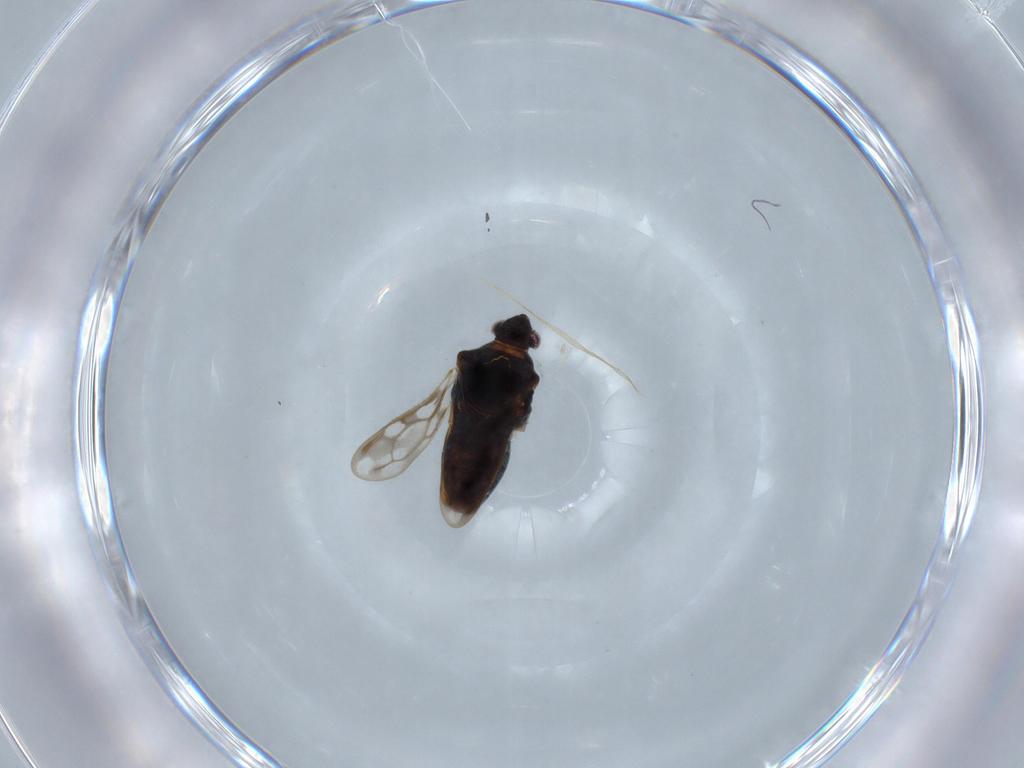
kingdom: Animalia
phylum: Arthropoda
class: Insecta
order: Hemiptera
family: Veliidae
